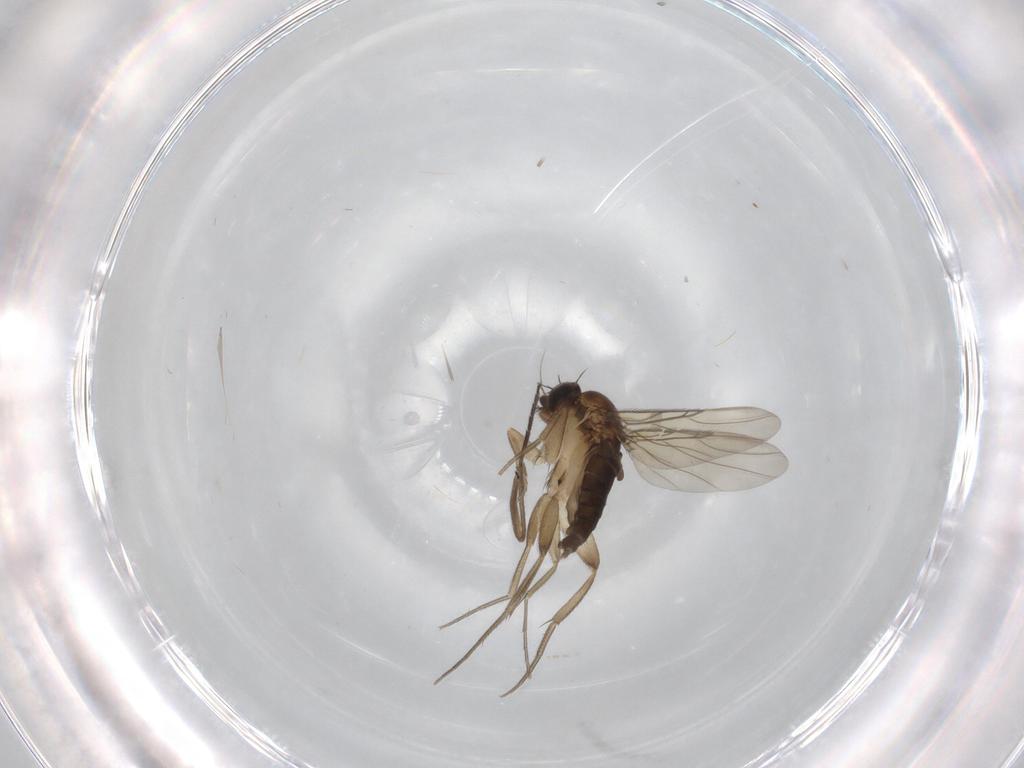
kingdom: Animalia
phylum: Arthropoda
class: Insecta
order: Diptera
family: Phoridae
